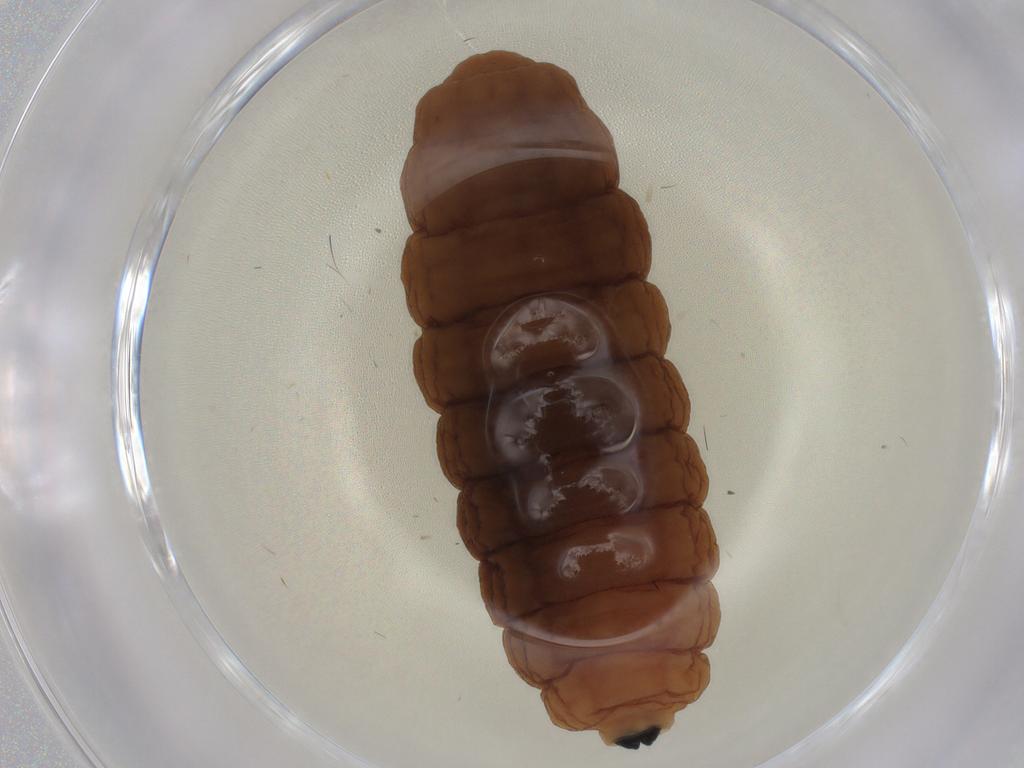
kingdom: Animalia
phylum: Arthropoda
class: Insecta
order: Diptera
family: Tachinidae
